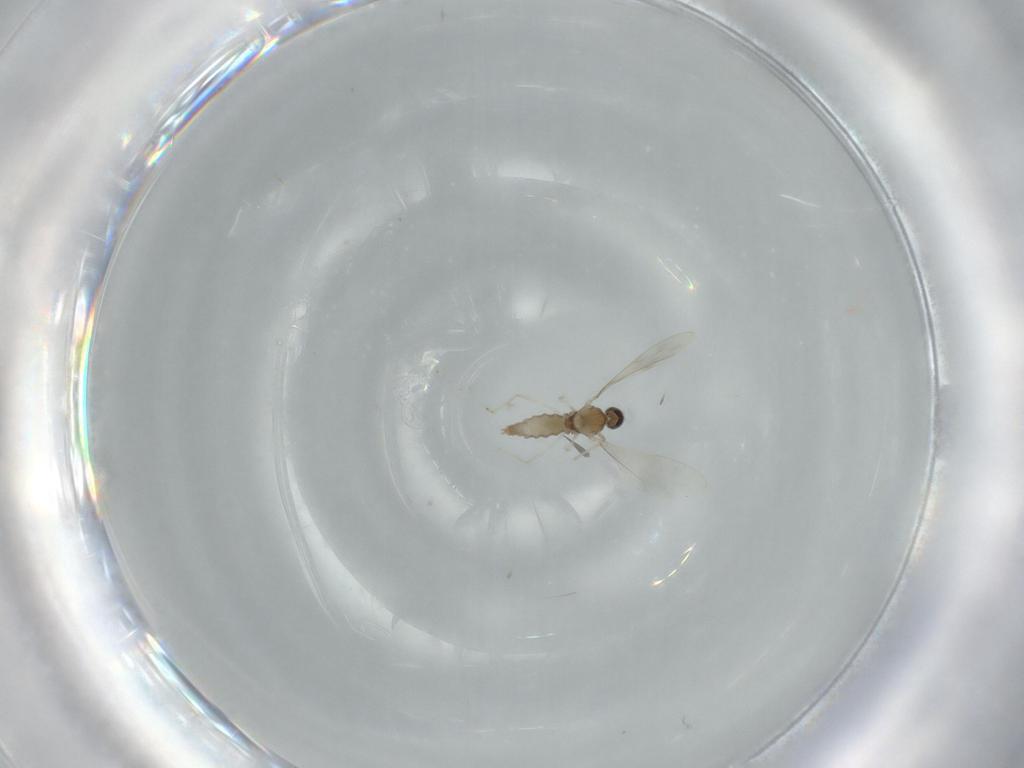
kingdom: Animalia
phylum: Arthropoda
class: Insecta
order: Diptera
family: Cecidomyiidae
